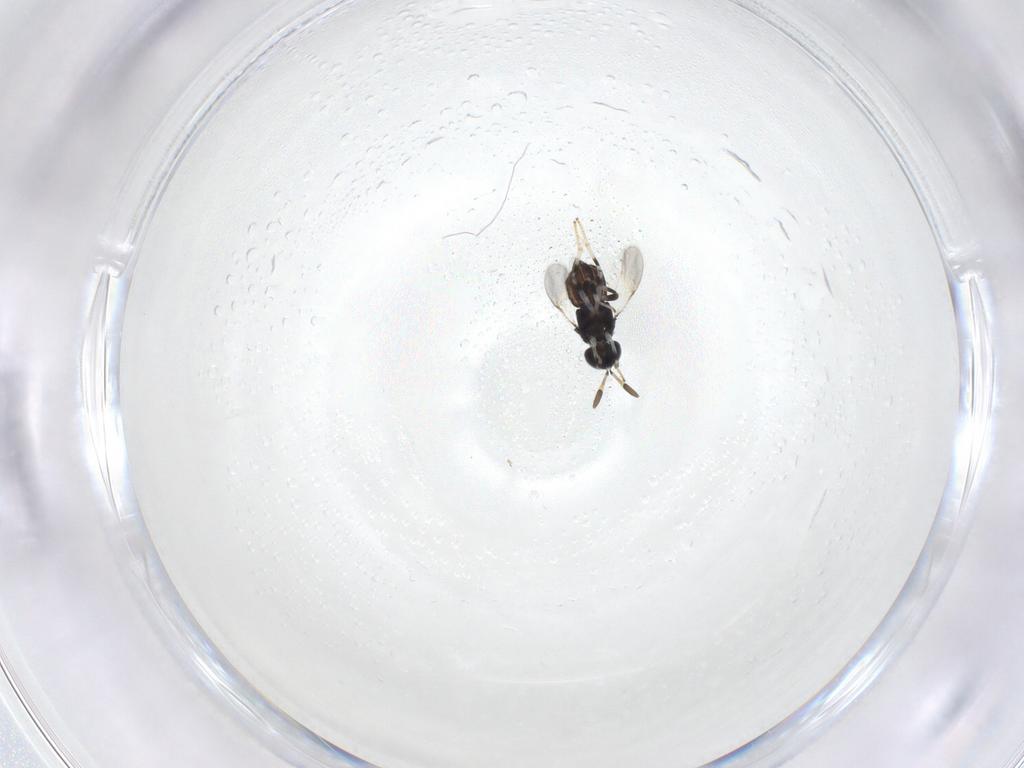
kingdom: Animalia
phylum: Arthropoda
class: Insecta
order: Hymenoptera
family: Encyrtidae
